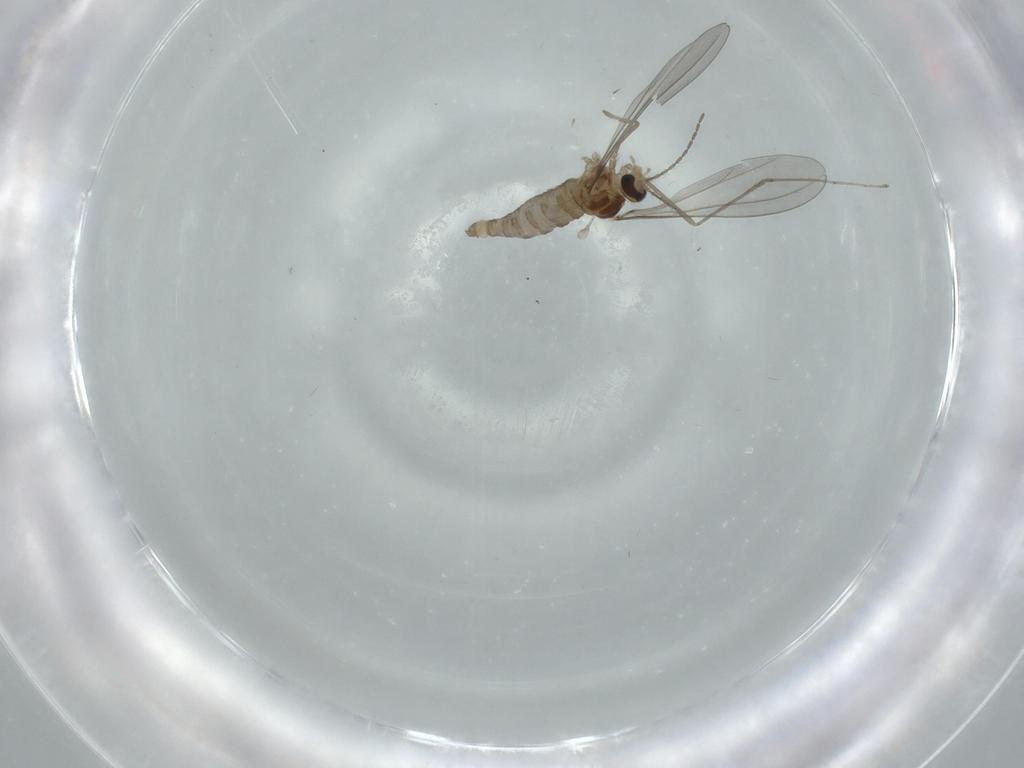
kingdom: Animalia
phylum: Arthropoda
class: Insecta
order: Diptera
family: Cecidomyiidae
